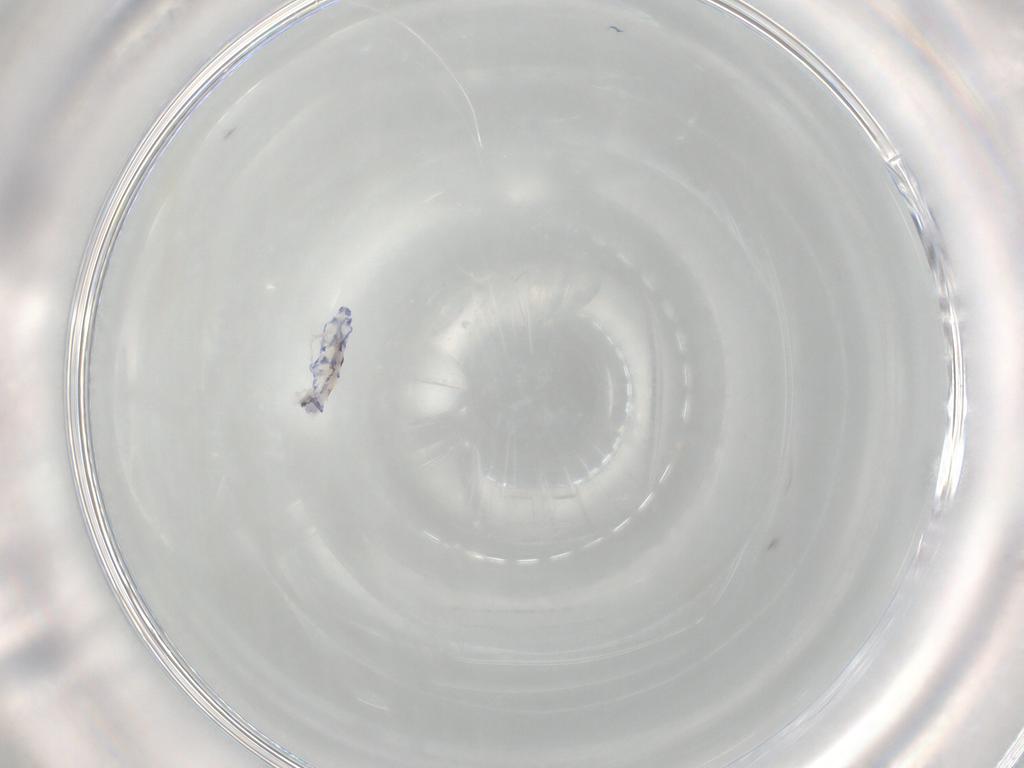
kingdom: Animalia
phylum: Arthropoda
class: Collembola
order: Entomobryomorpha
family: Entomobryidae
